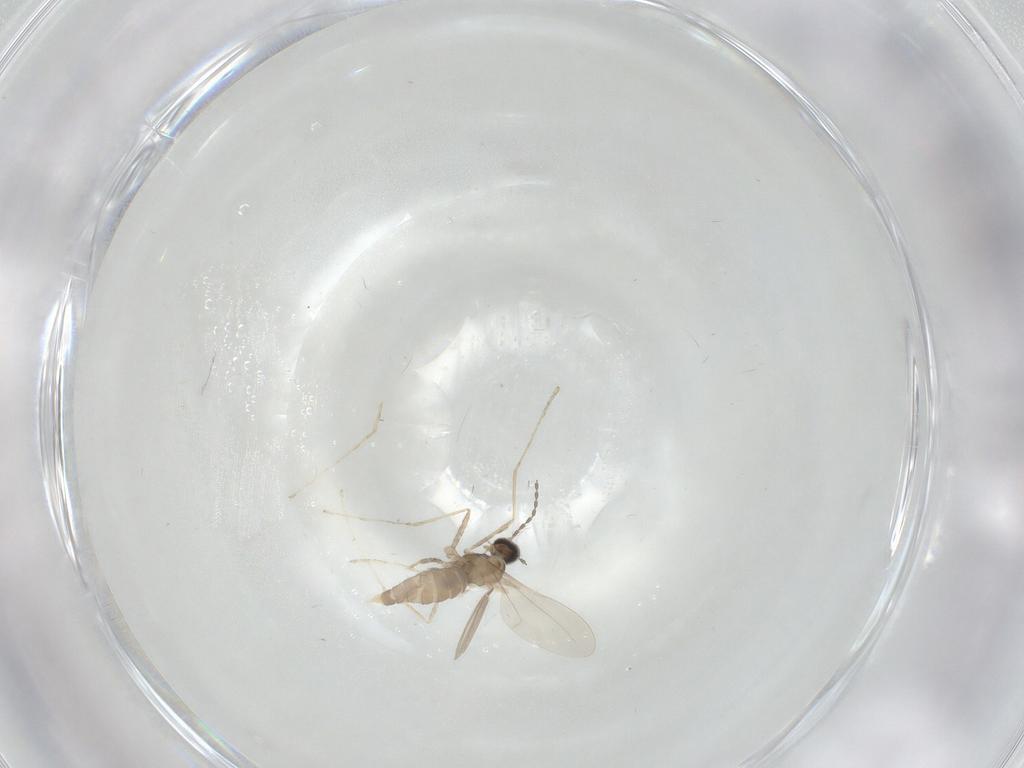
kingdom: Animalia
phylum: Arthropoda
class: Insecta
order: Diptera
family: Cecidomyiidae
